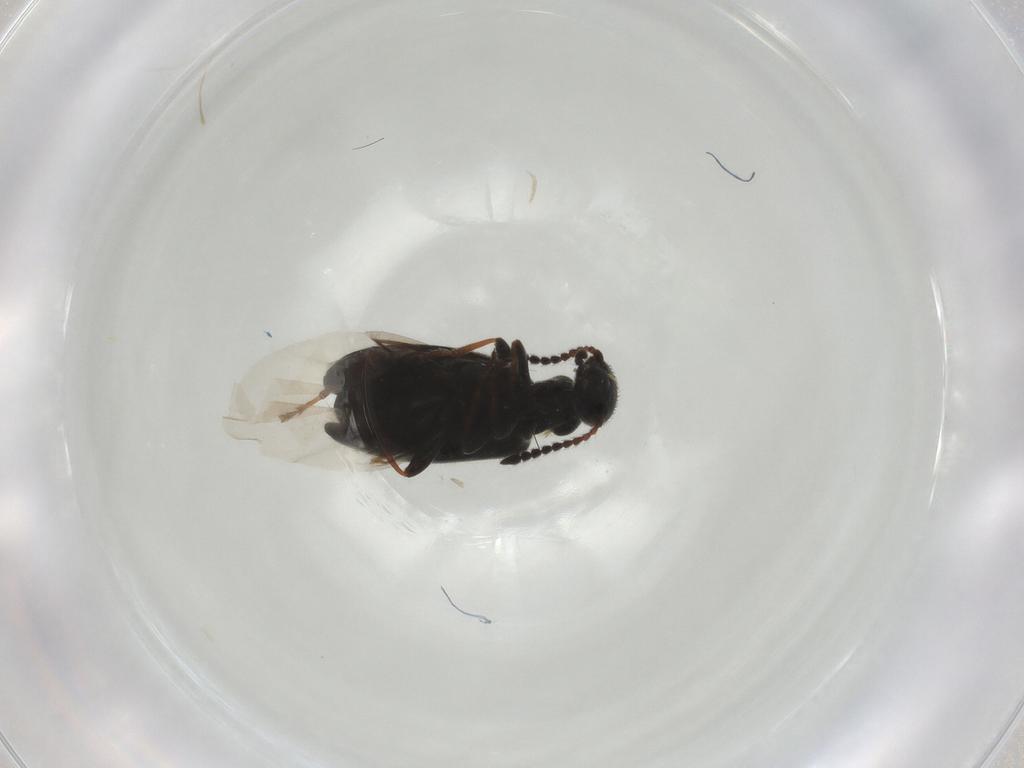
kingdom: Animalia
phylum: Arthropoda
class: Insecta
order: Coleoptera
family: Anthicidae
